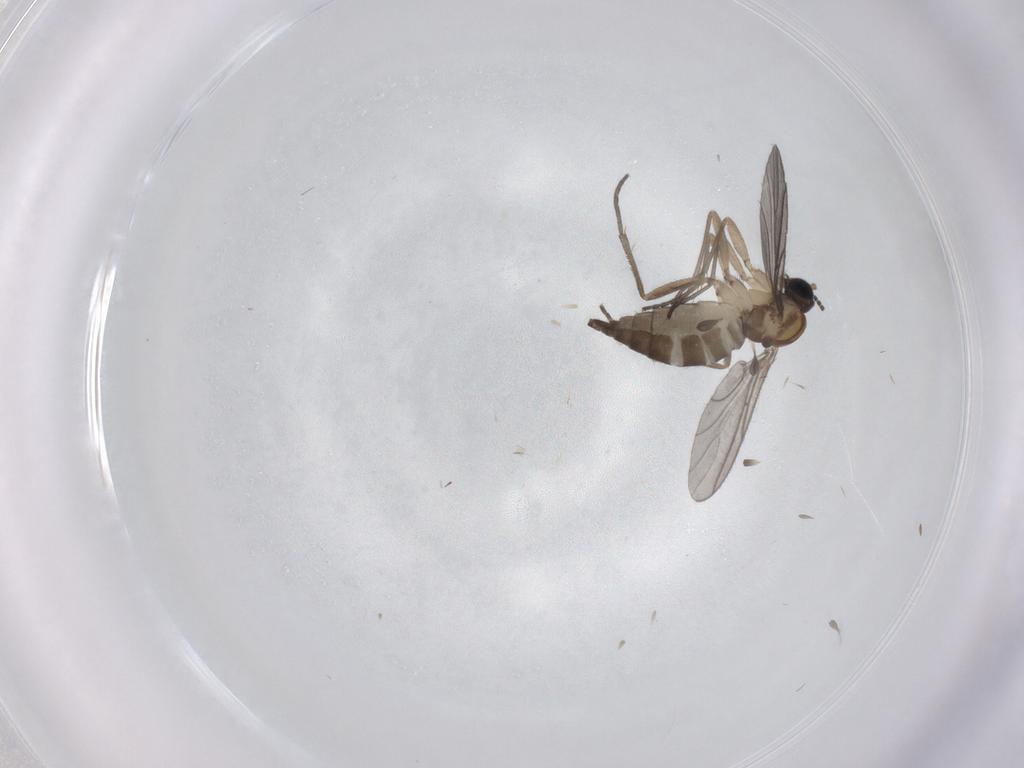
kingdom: Animalia
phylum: Arthropoda
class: Insecta
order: Diptera
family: Sciaridae
